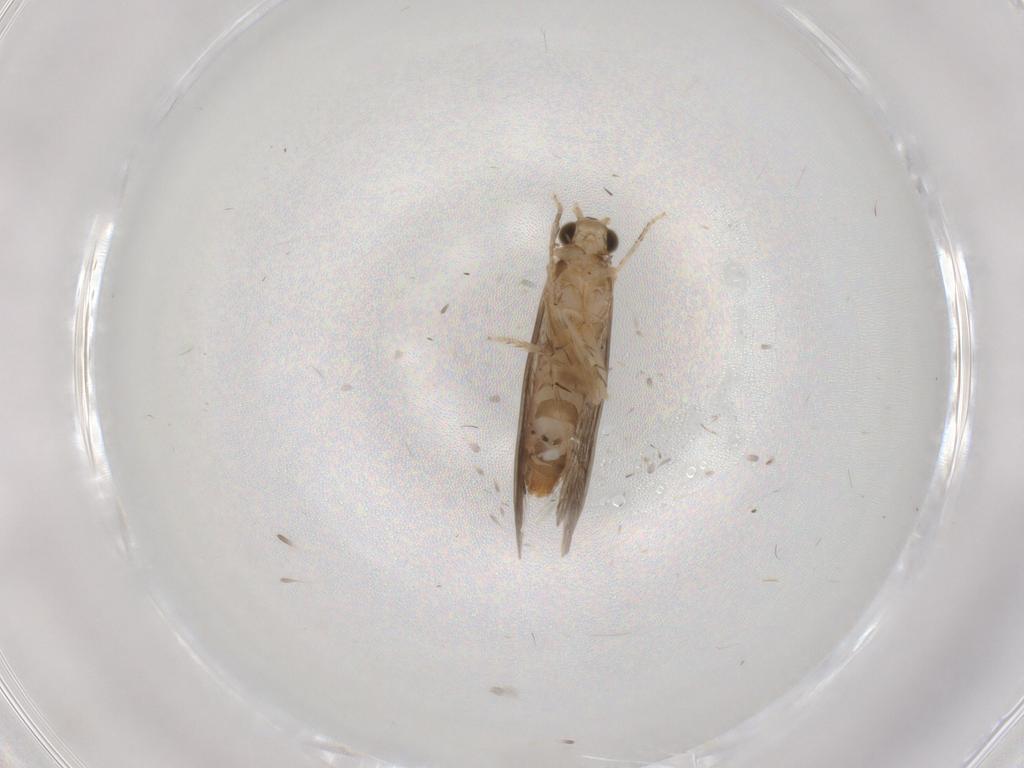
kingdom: Animalia
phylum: Arthropoda
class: Insecta
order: Trichoptera
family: Glossosomatidae
